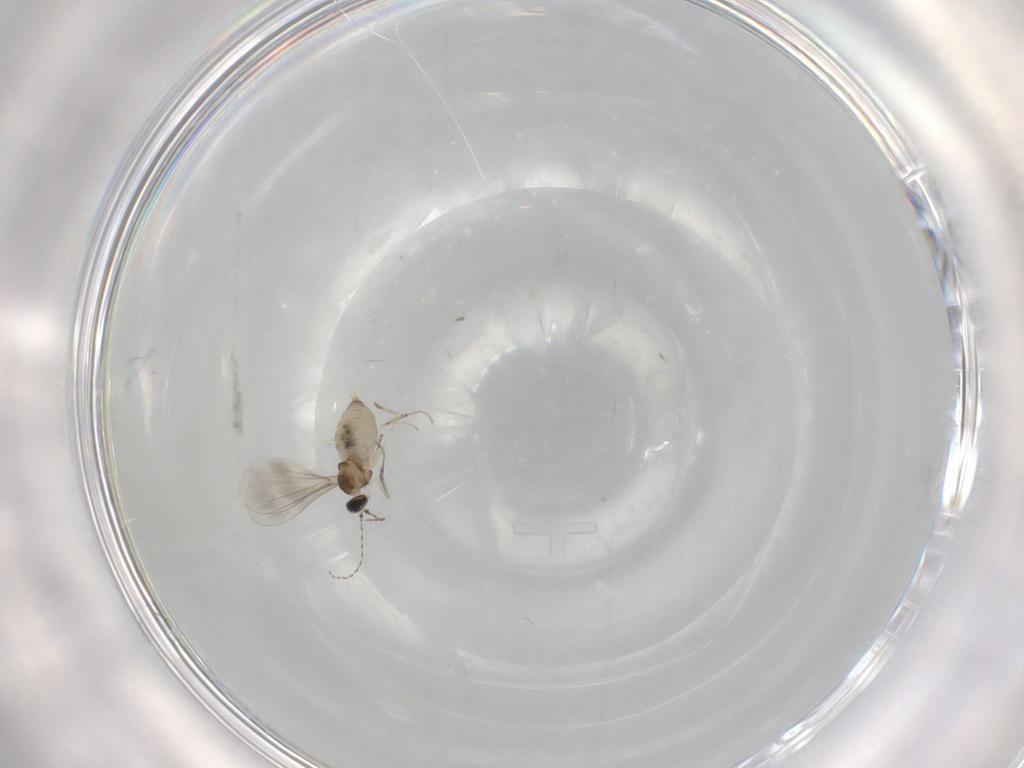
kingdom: Animalia
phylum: Arthropoda
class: Insecta
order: Diptera
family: Cecidomyiidae
